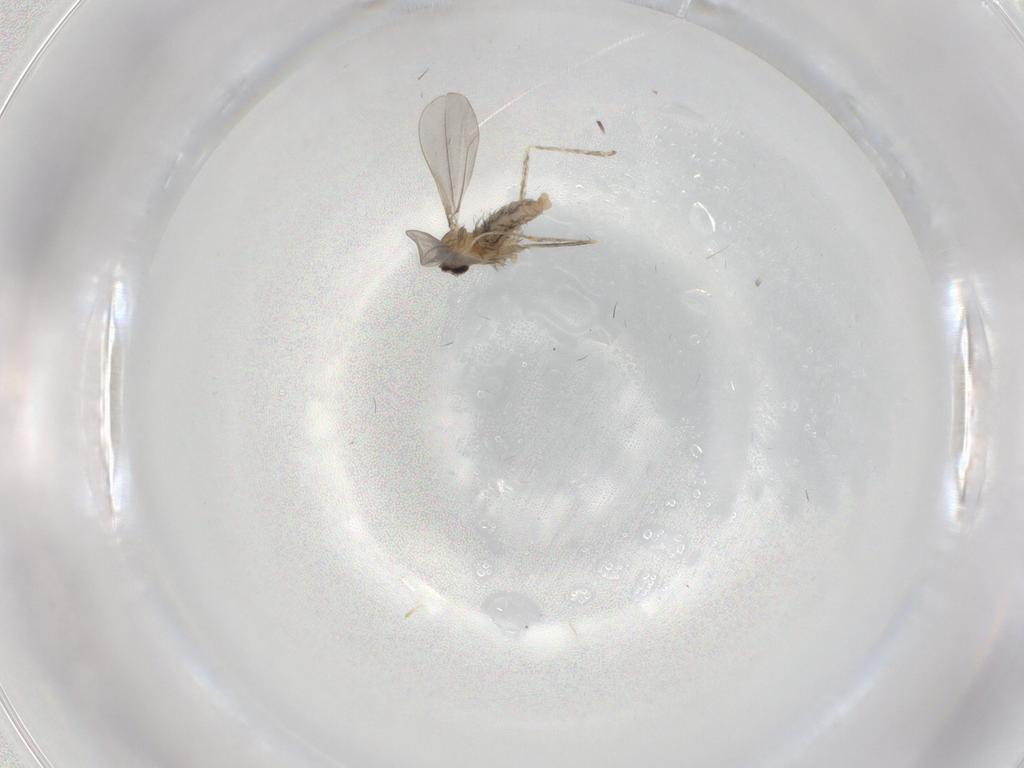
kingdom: Animalia
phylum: Arthropoda
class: Insecta
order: Diptera
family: Cecidomyiidae
